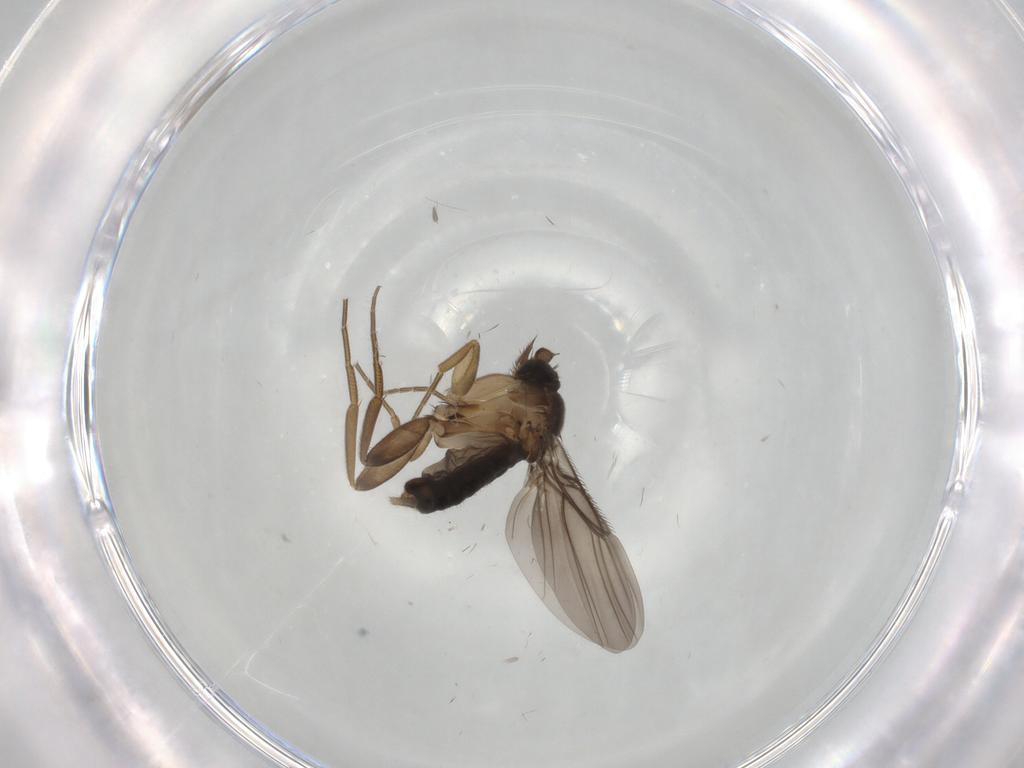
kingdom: Animalia
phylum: Arthropoda
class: Insecta
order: Diptera
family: Phoridae
